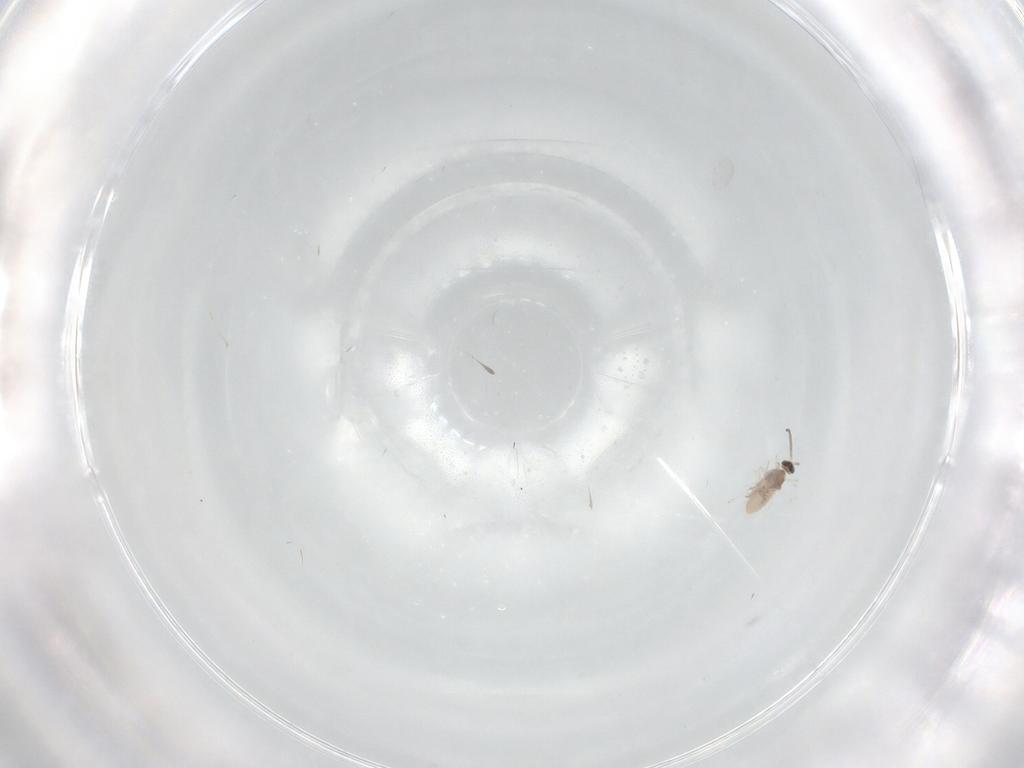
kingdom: Animalia
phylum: Arthropoda
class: Insecta
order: Diptera
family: Cecidomyiidae
